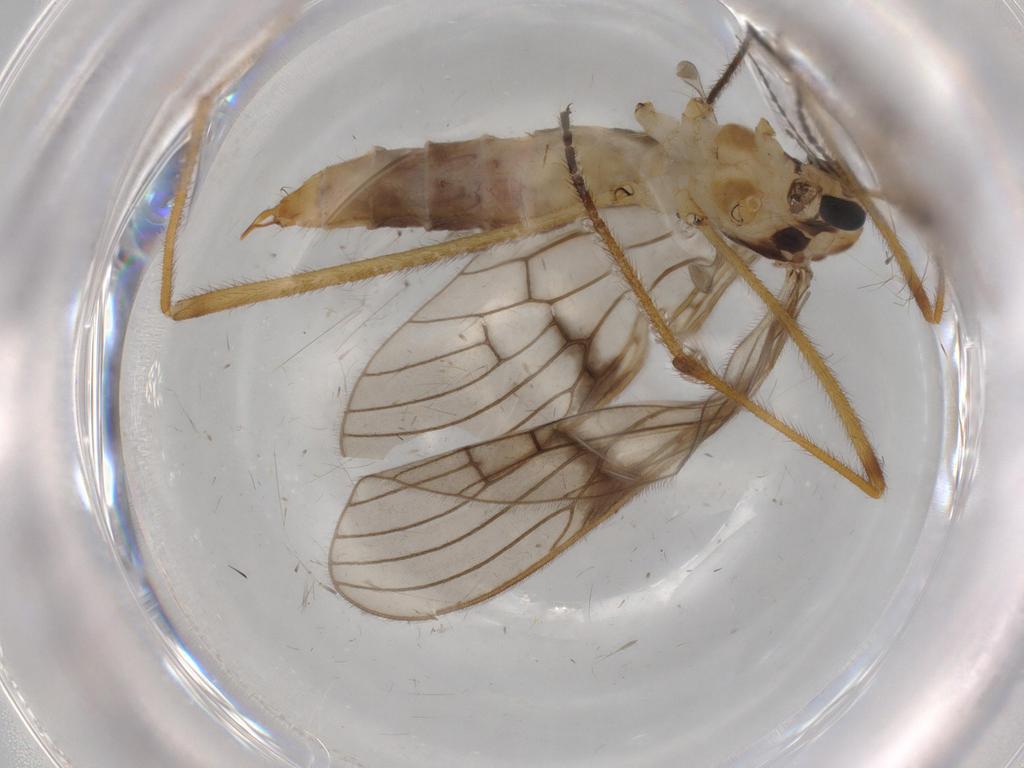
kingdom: Animalia
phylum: Arthropoda
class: Insecta
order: Diptera
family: Limoniidae
